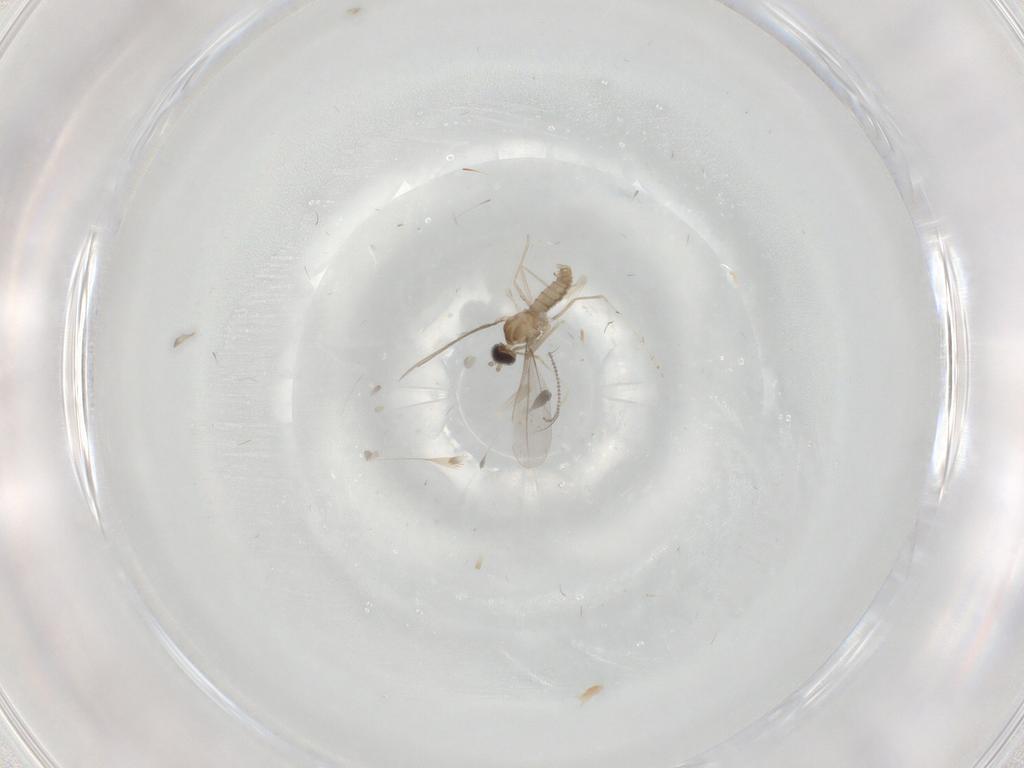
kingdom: Animalia
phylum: Arthropoda
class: Insecta
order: Diptera
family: Cecidomyiidae
